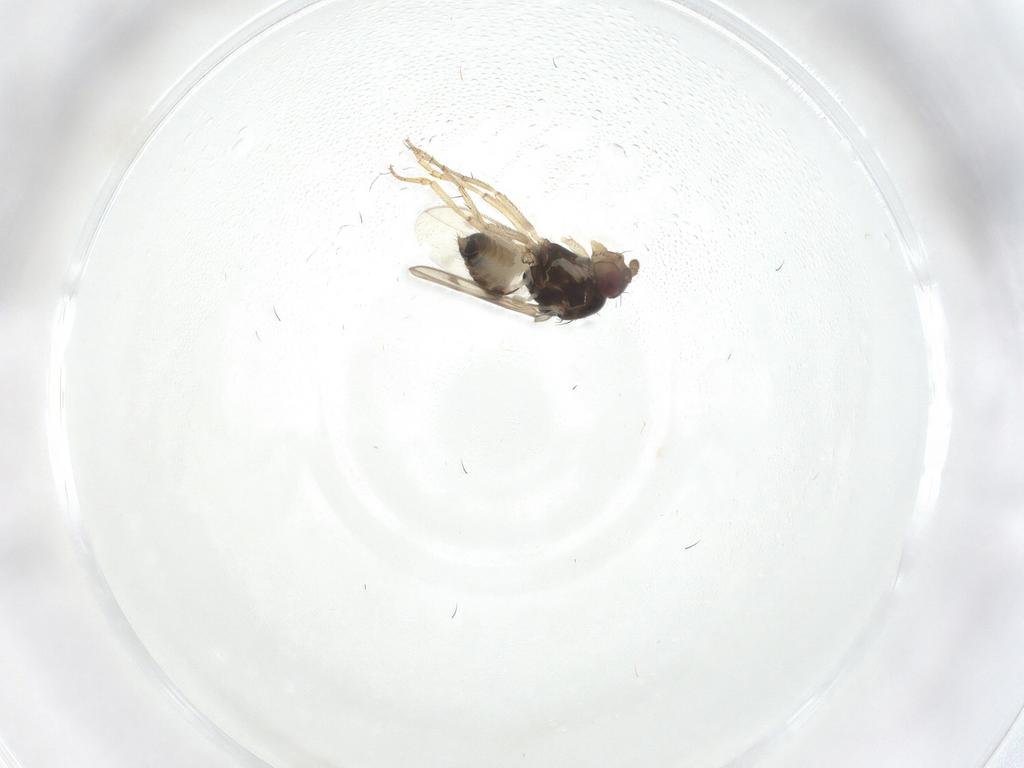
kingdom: Animalia
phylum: Arthropoda
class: Insecta
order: Diptera
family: Sphaeroceridae
